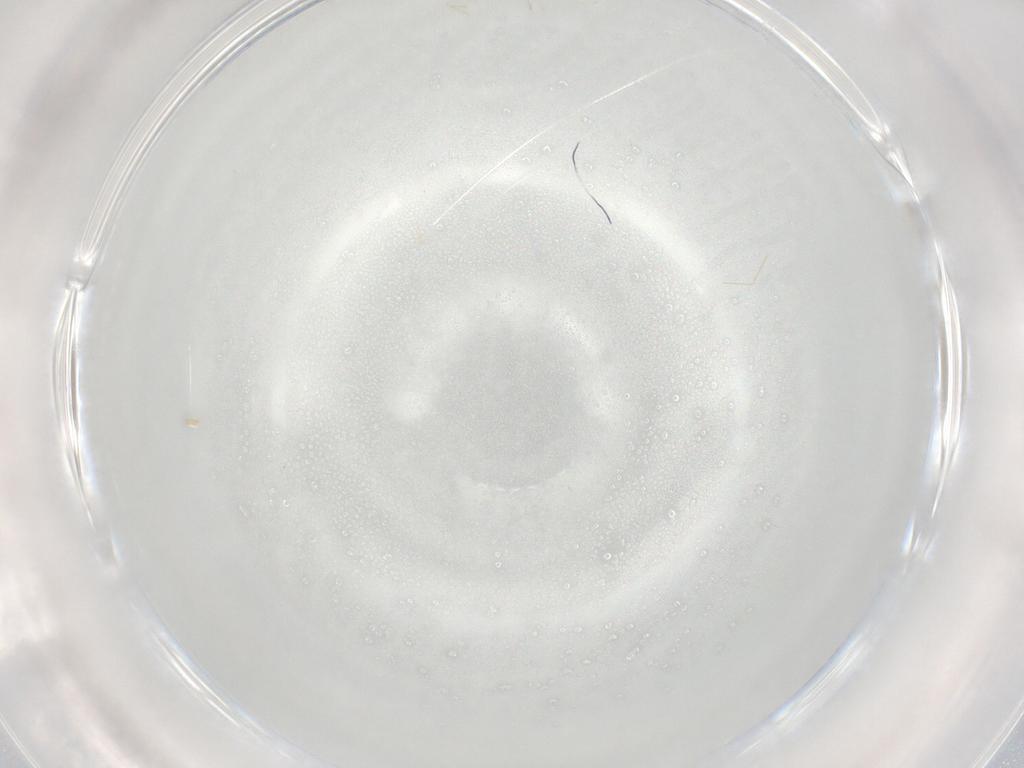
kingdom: Animalia
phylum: Arthropoda
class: Insecta
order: Diptera
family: Cecidomyiidae
